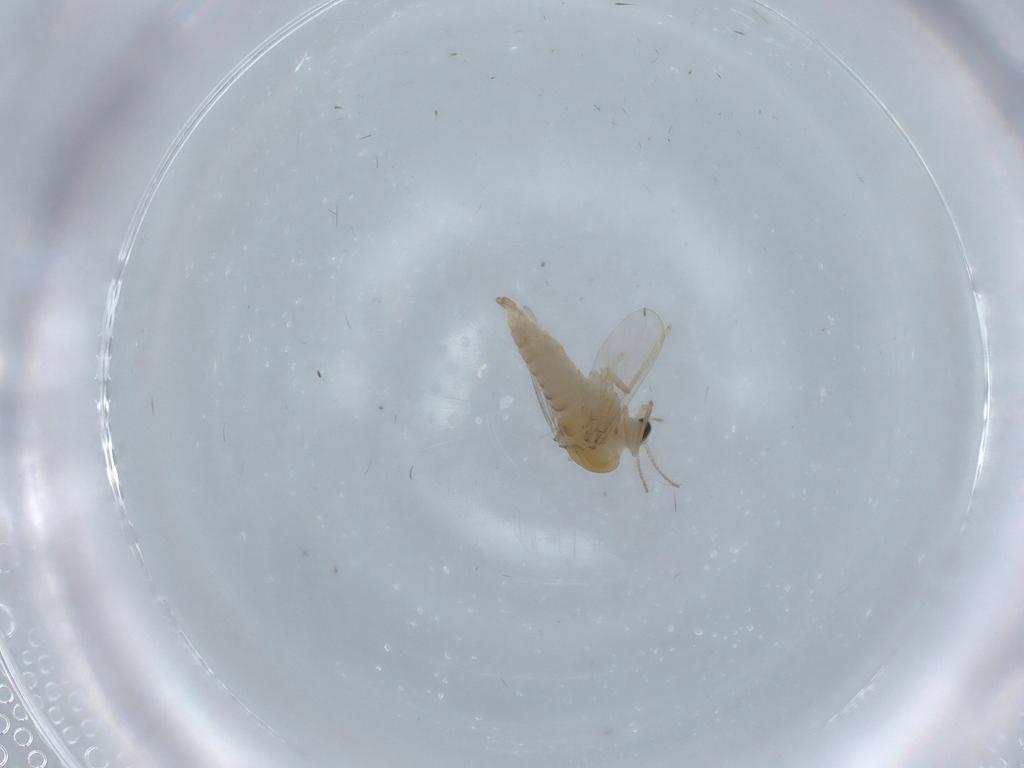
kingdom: Animalia
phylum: Arthropoda
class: Insecta
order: Diptera
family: Chironomidae
